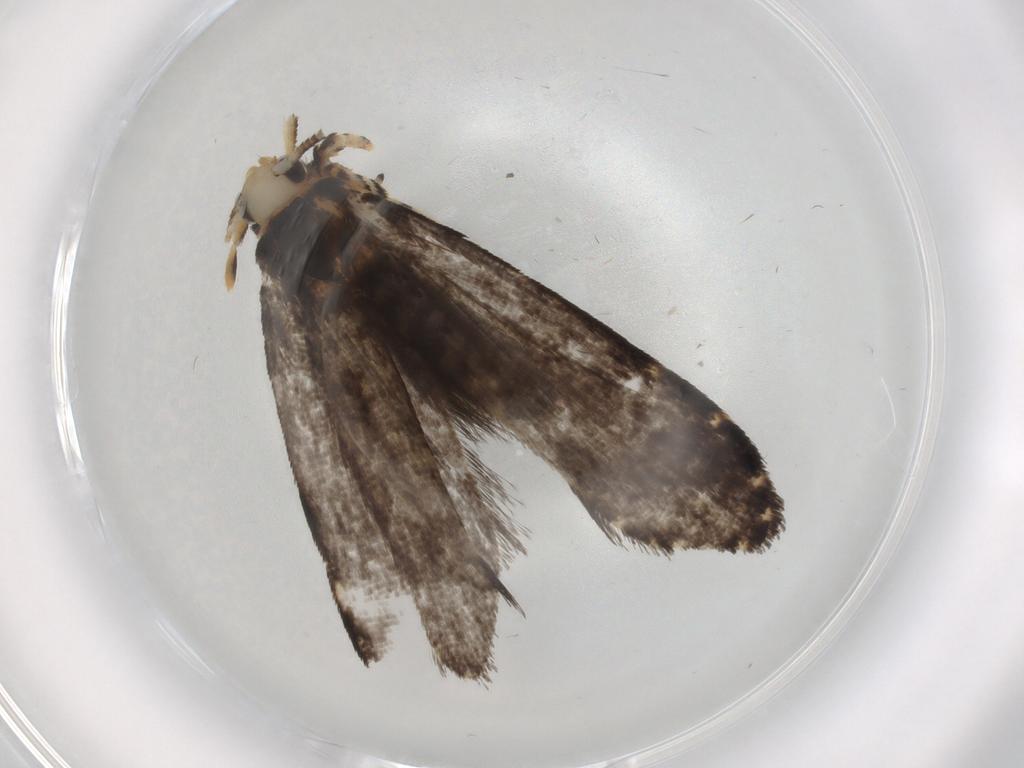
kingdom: Animalia
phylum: Arthropoda
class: Insecta
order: Lepidoptera
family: Tineidae
